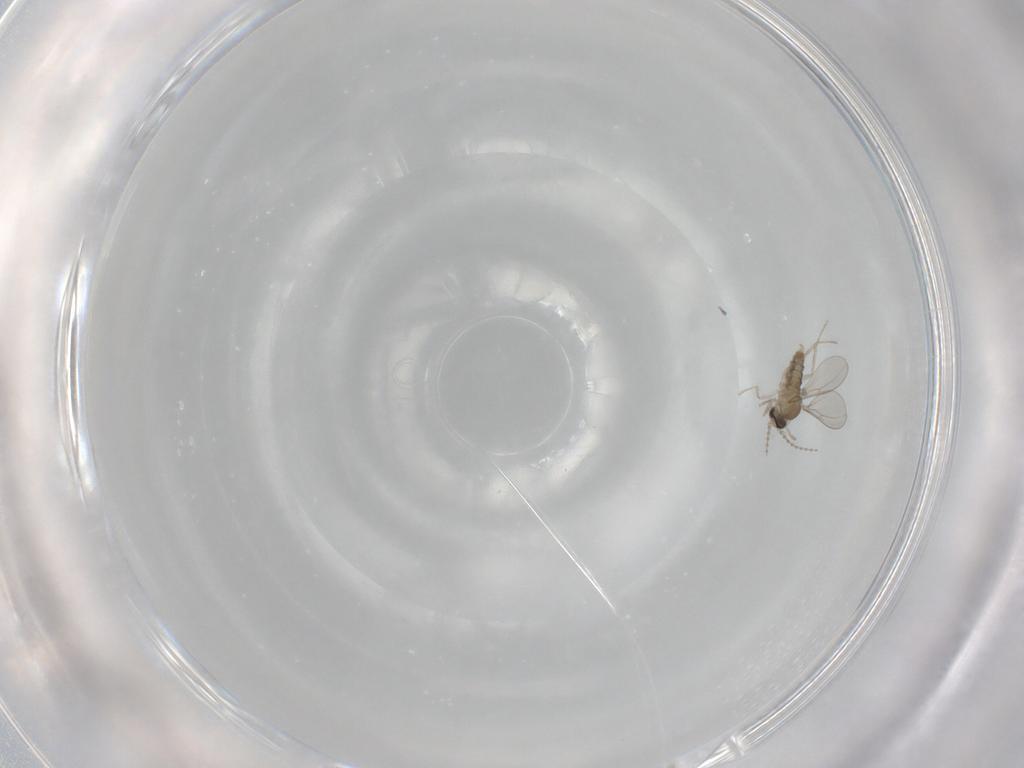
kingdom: Animalia
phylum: Arthropoda
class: Insecta
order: Diptera
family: Cecidomyiidae
